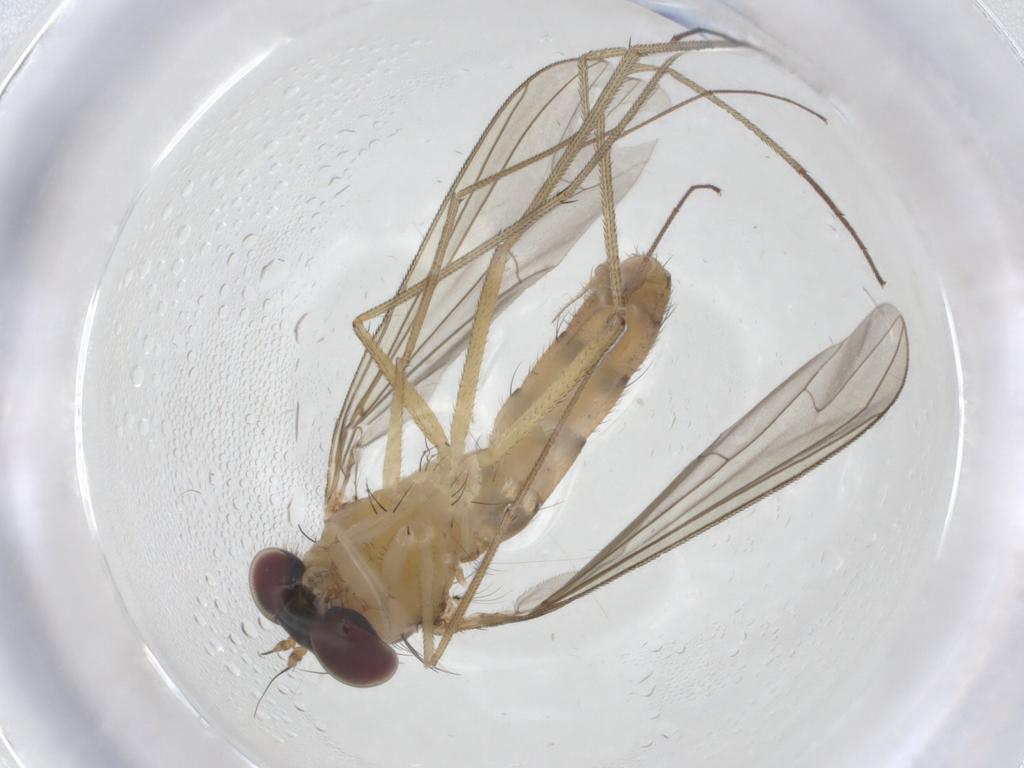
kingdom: Animalia
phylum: Arthropoda
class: Insecta
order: Diptera
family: Dolichopodidae
